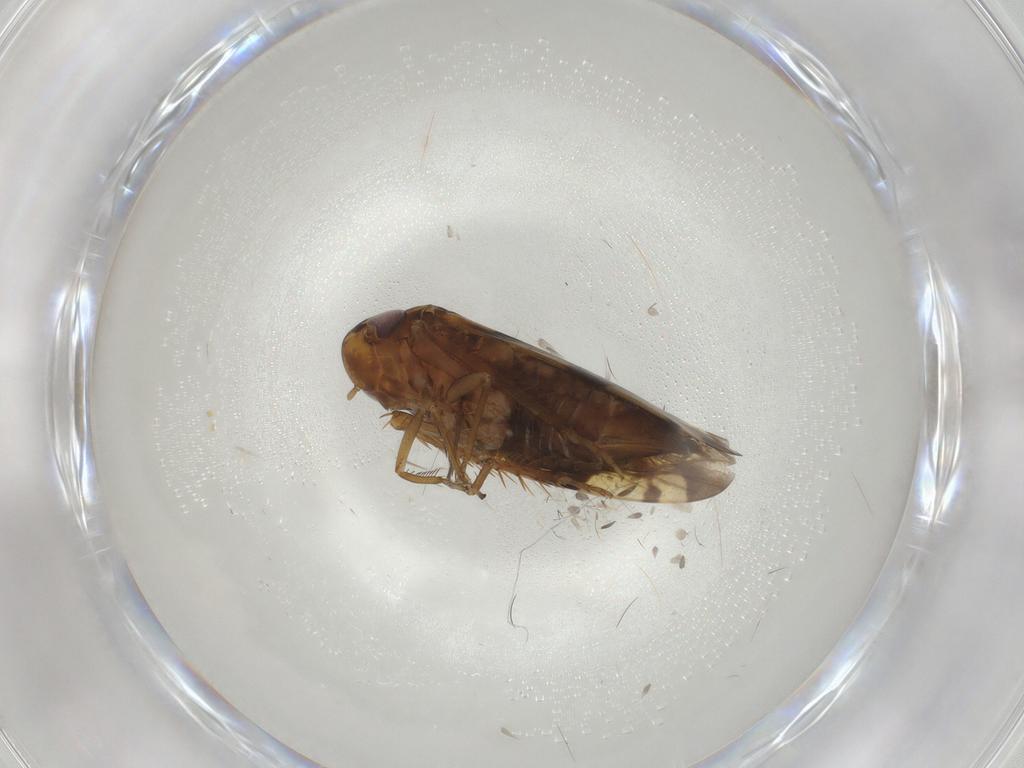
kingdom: Animalia
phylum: Arthropoda
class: Insecta
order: Hemiptera
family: Cicadellidae
